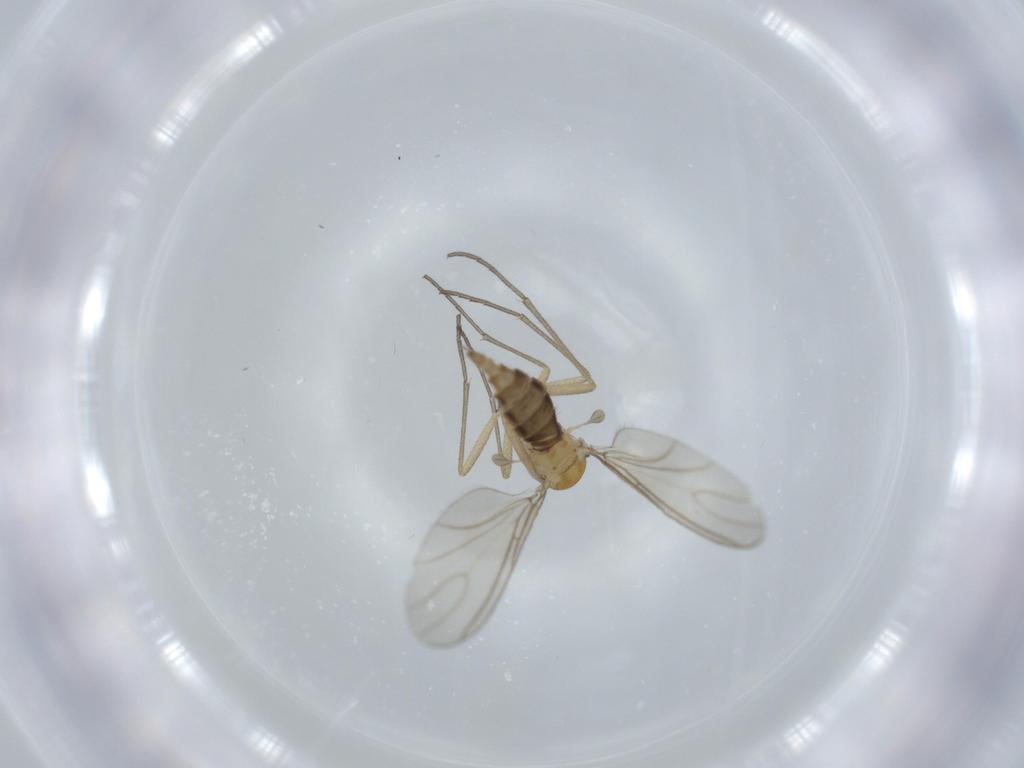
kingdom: Animalia
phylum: Arthropoda
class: Insecta
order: Diptera
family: Sciaridae
